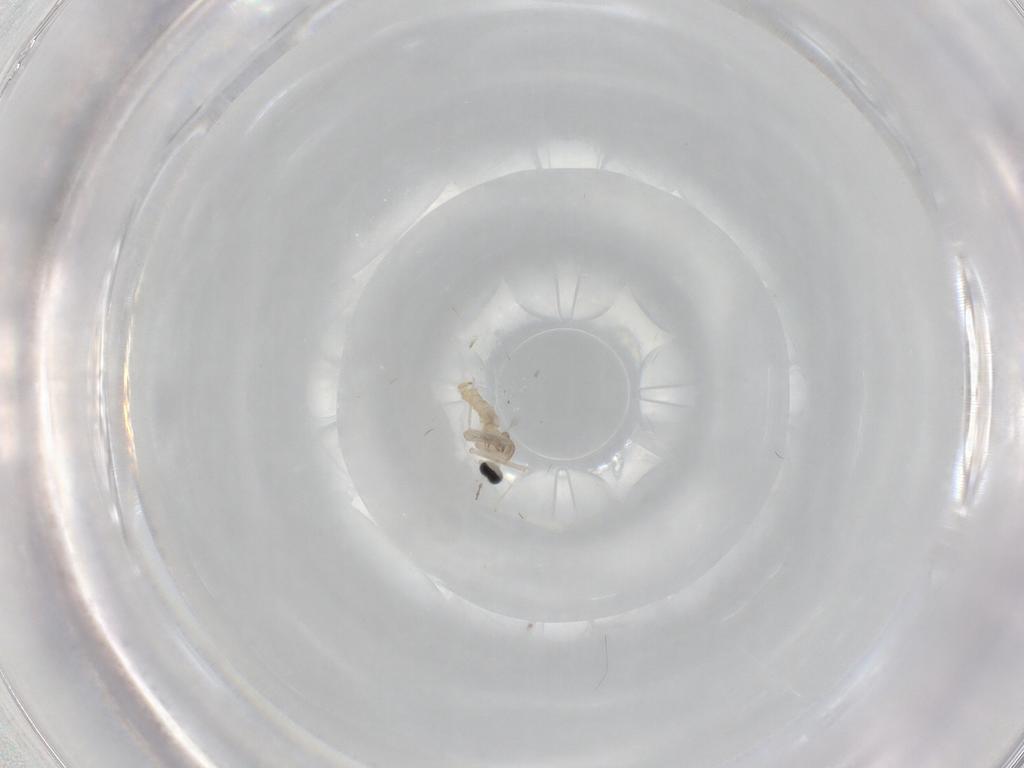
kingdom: Animalia
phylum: Arthropoda
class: Insecta
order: Diptera
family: Cecidomyiidae
